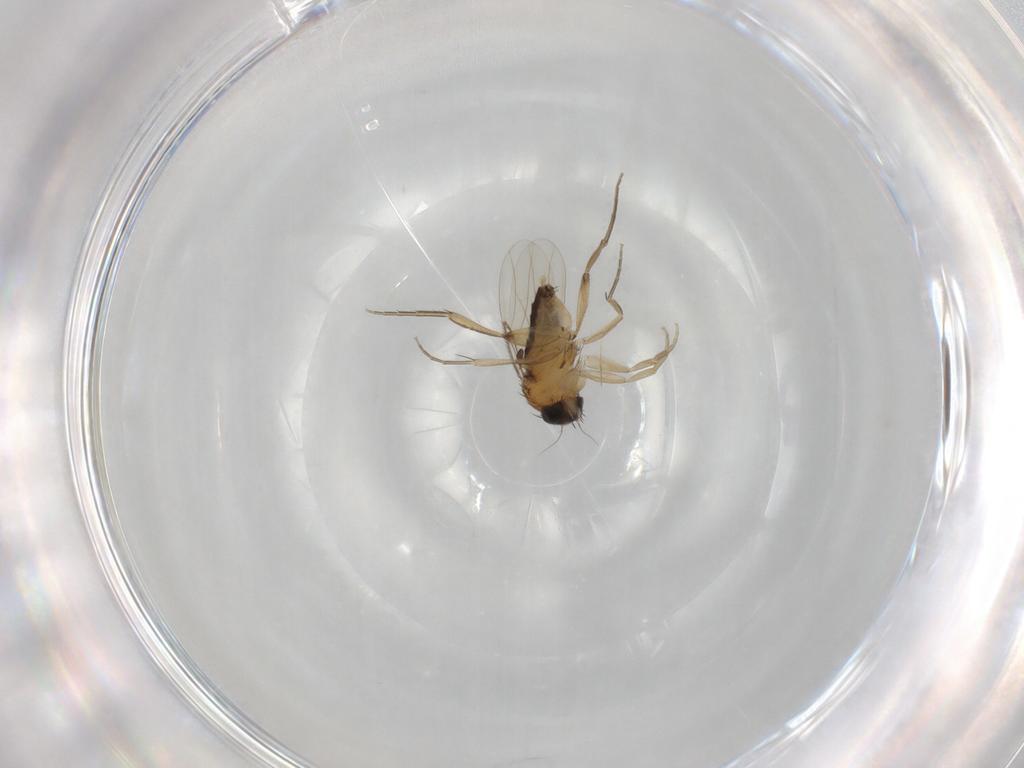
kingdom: Animalia
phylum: Arthropoda
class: Insecta
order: Diptera
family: Phoridae
